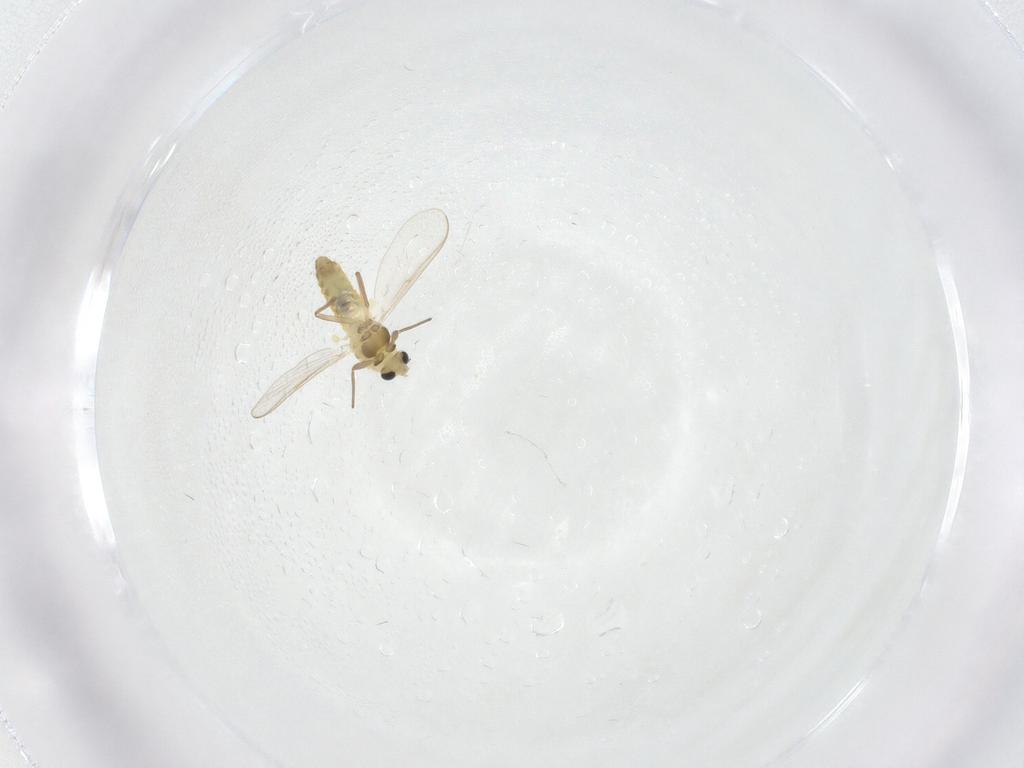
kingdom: Animalia
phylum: Arthropoda
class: Insecta
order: Diptera
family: Chironomidae
